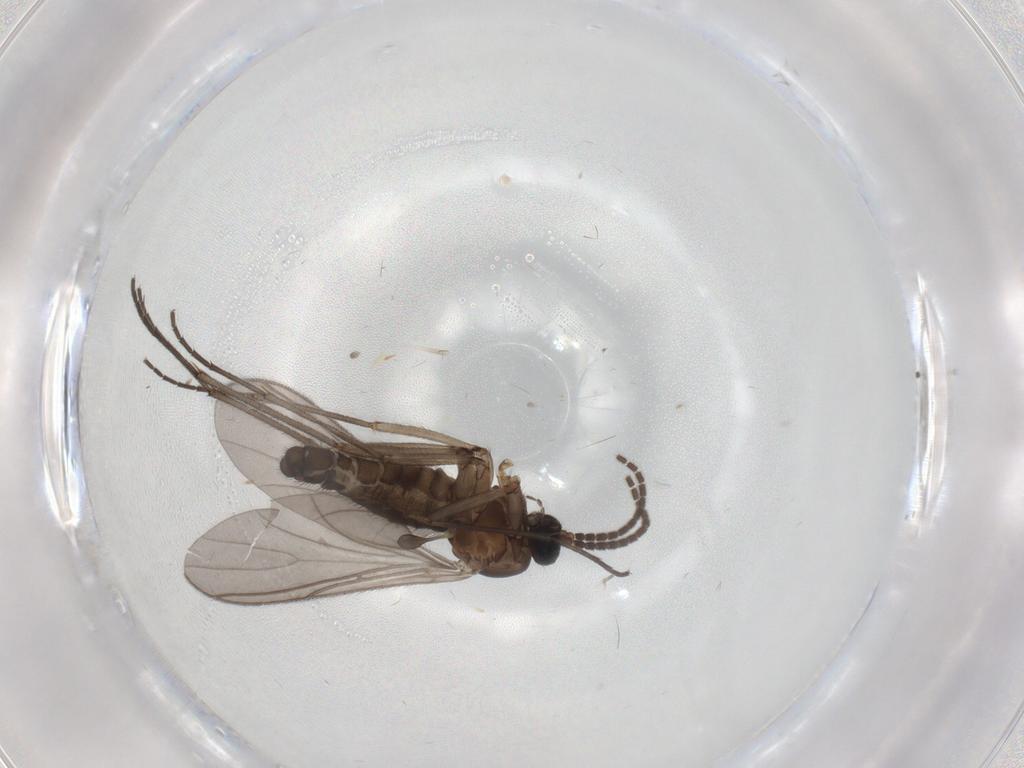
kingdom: Animalia
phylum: Arthropoda
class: Insecta
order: Diptera
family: Sciaridae
